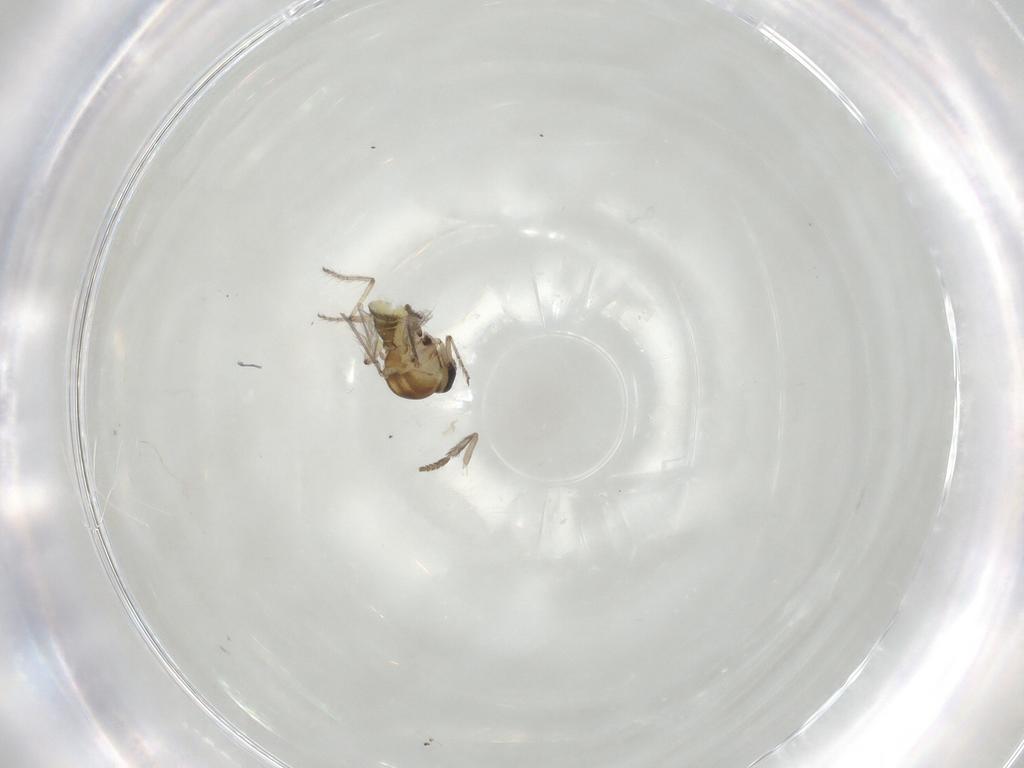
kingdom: Animalia
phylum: Arthropoda
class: Insecta
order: Diptera
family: Ceratopogonidae
